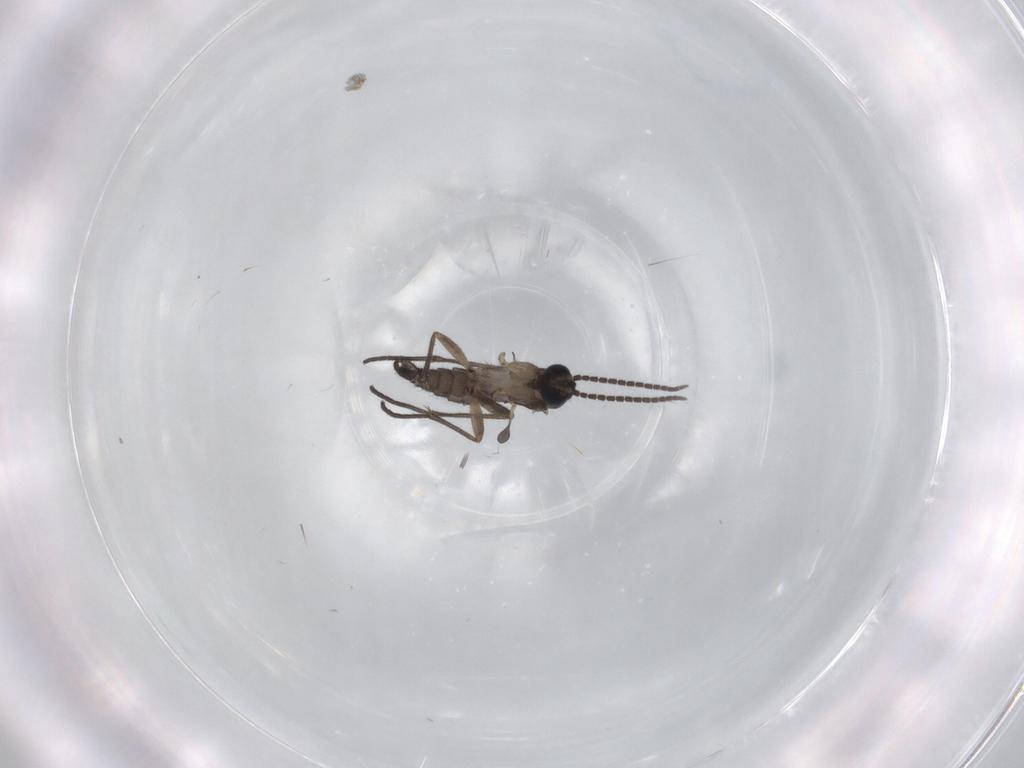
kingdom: Animalia
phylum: Arthropoda
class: Insecta
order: Diptera
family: Sciaridae
